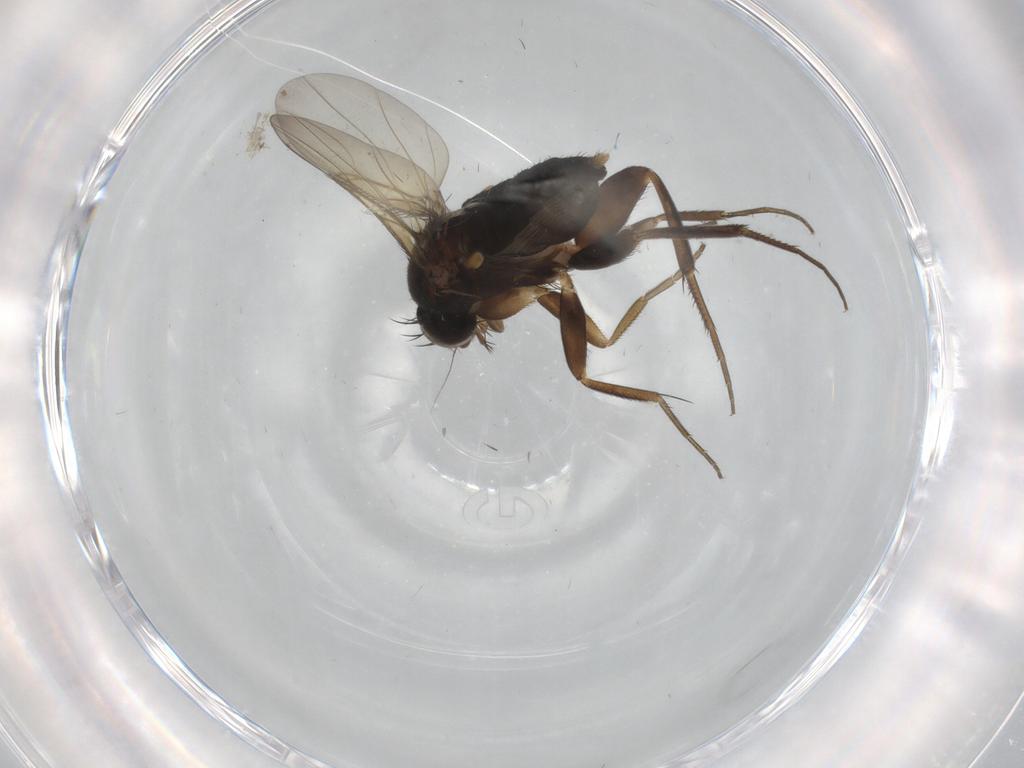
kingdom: Animalia
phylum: Arthropoda
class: Insecta
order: Diptera
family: Phoridae
